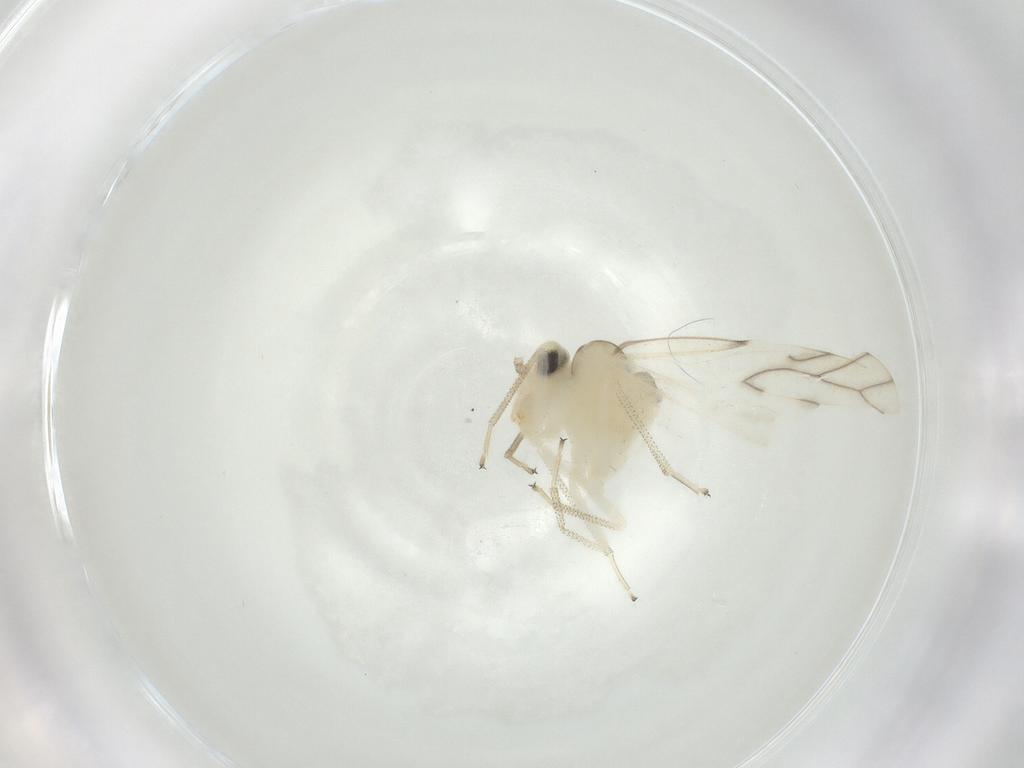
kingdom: Animalia
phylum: Arthropoda
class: Insecta
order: Psocodea
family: Caeciliusidae
